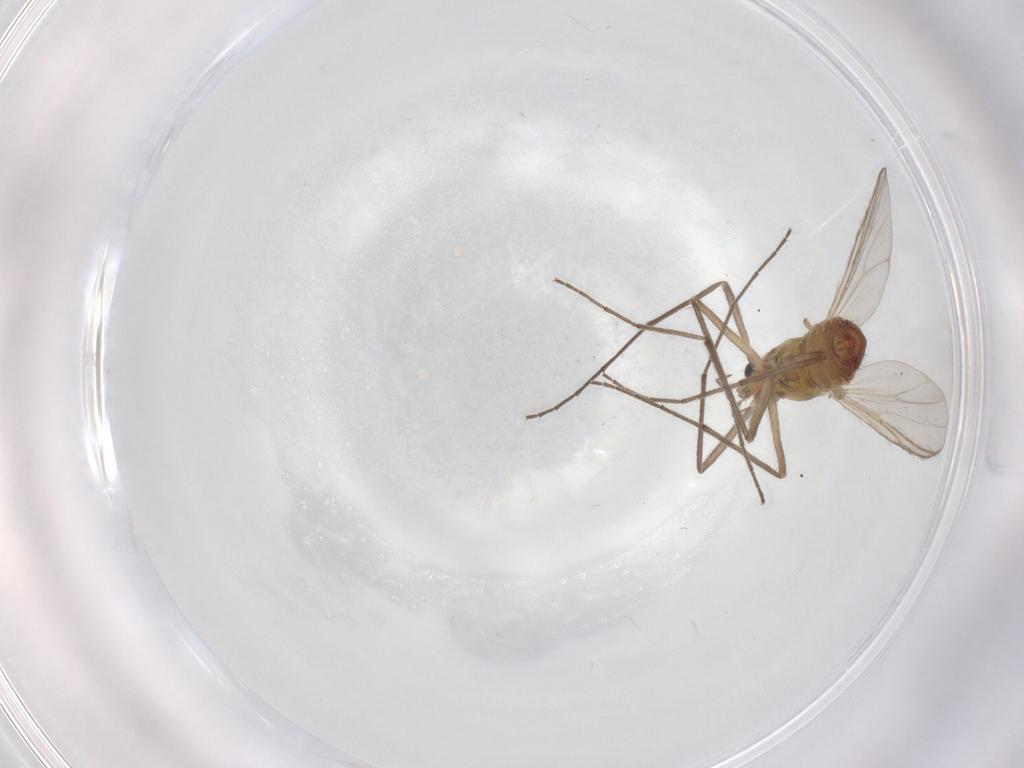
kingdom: Animalia
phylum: Arthropoda
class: Insecta
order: Diptera
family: Chironomidae
